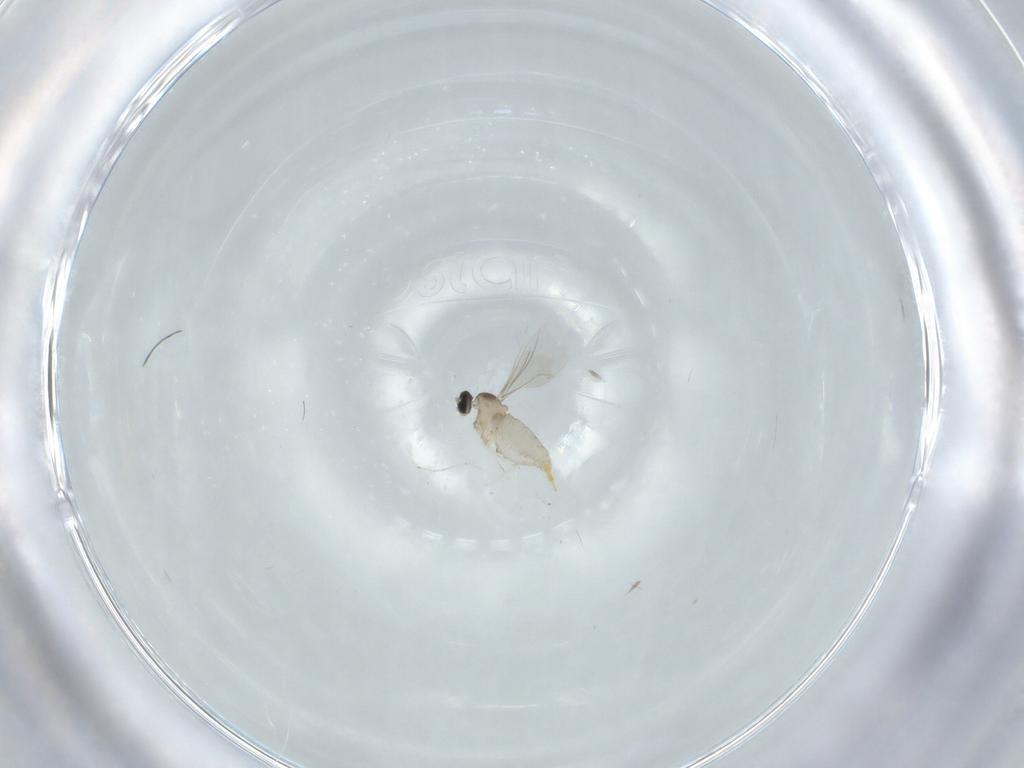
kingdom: Animalia
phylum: Arthropoda
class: Insecta
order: Diptera
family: Cecidomyiidae
